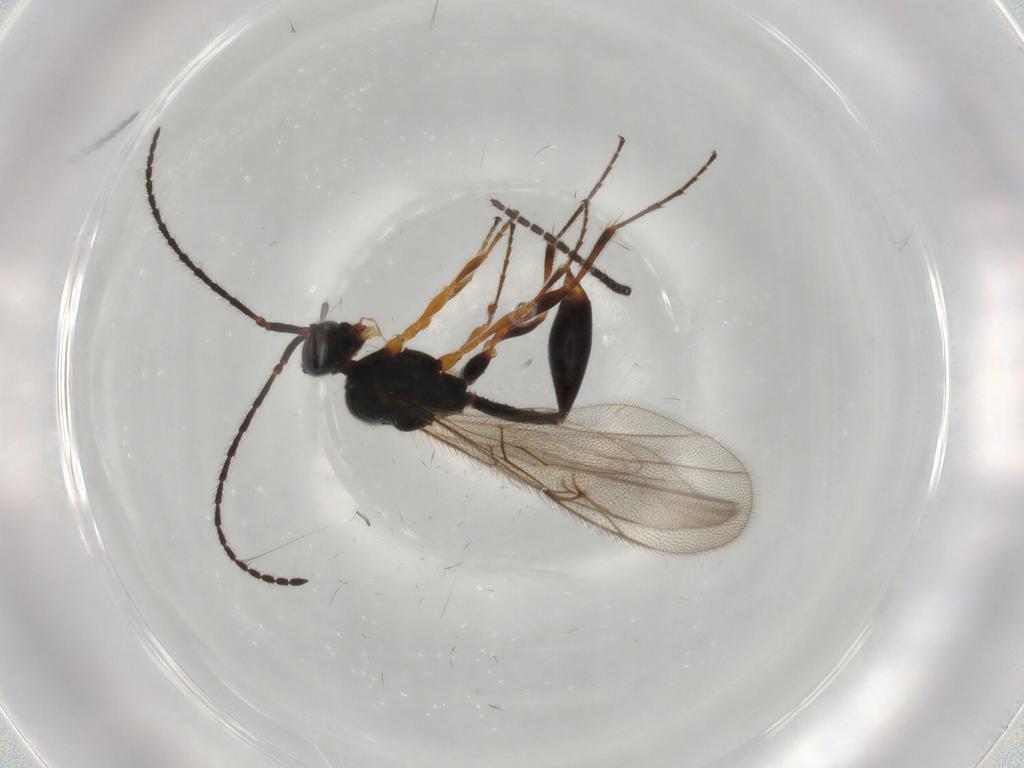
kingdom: Animalia
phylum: Arthropoda
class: Insecta
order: Hymenoptera
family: Diapriidae
